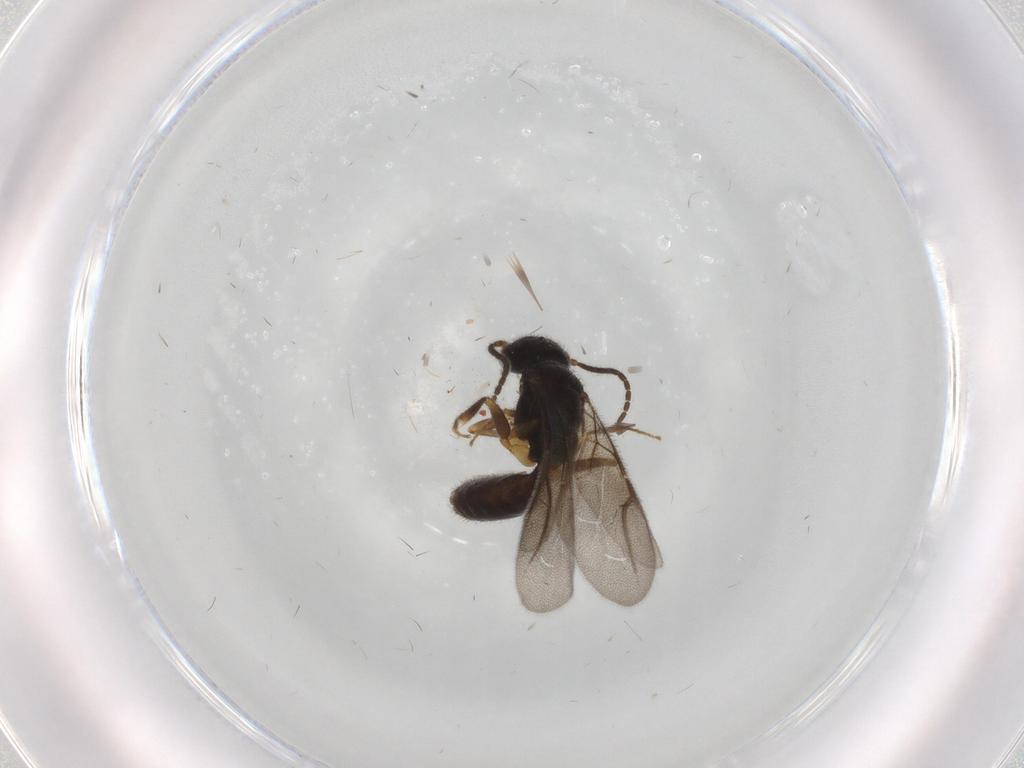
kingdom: Animalia
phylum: Arthropoda
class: Insecta
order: Hymenoptera
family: Bethylidae
